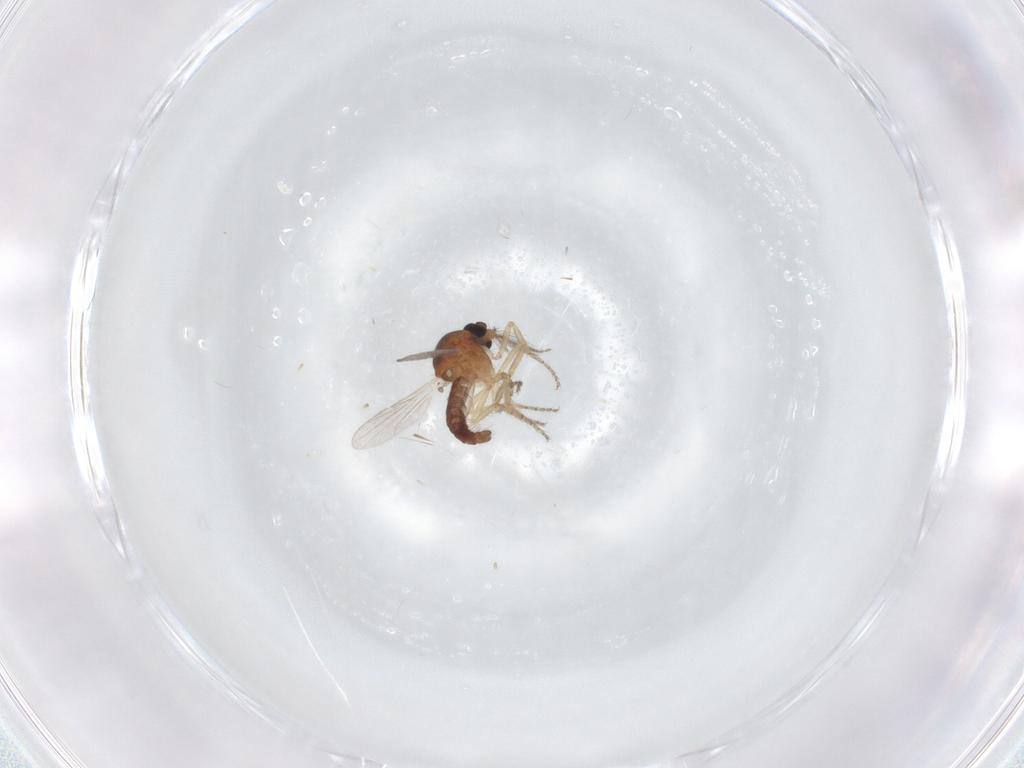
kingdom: Animalia
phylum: Arthropoda
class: Insecta
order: Diptera
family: Ceratopogonidae
